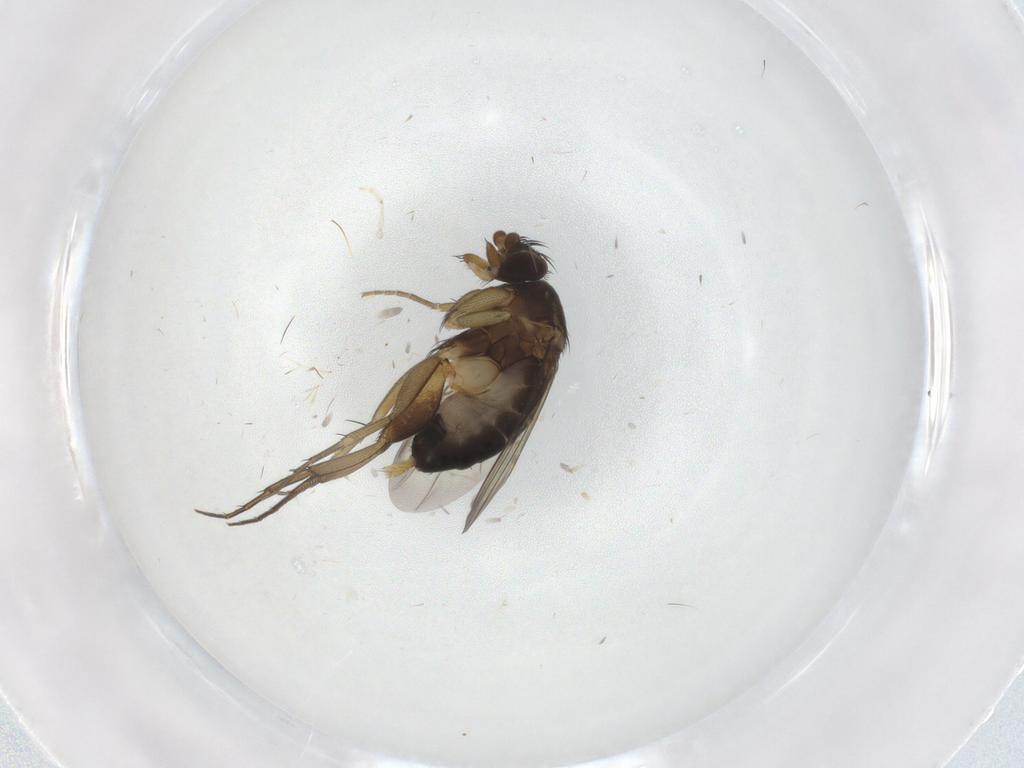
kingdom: Animalia
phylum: Arthropoda
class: Insecta
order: Diptera
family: Phoridae
